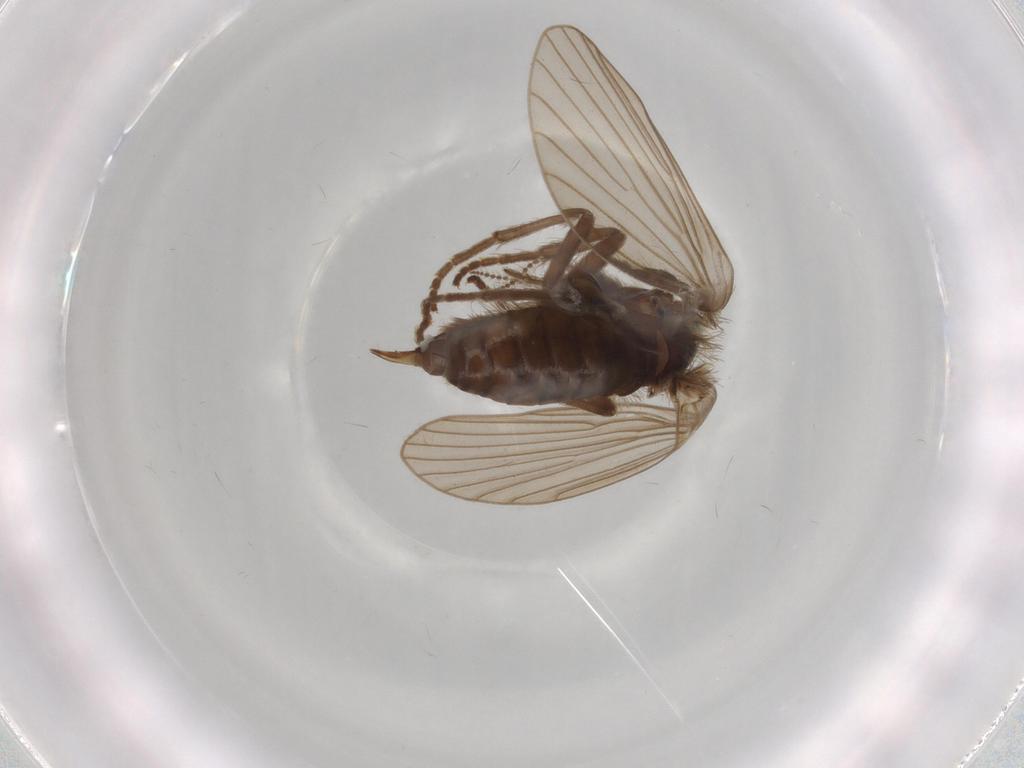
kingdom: Animalia
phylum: Arthropoda
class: Insecta
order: Diptera
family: Psychodidae
